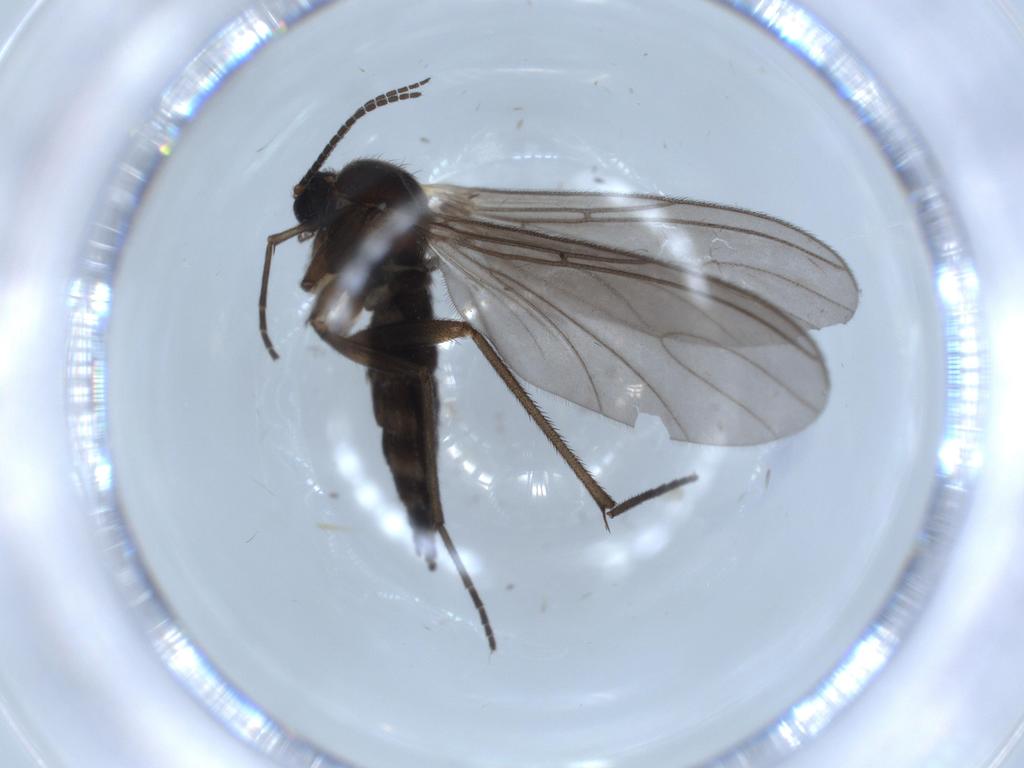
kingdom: Animalia
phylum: Arthropoda
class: Insecta
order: Diptera
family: Sciaridae
